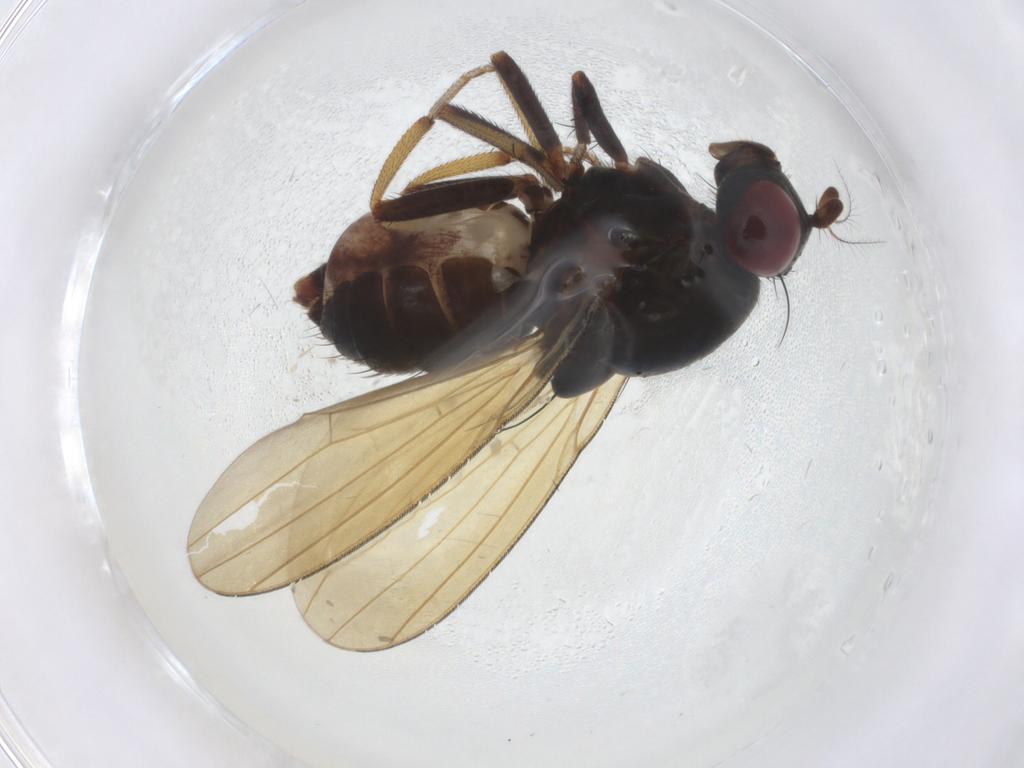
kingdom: Animalia
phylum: Arthropoda
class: Insecta
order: Diptera
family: Lauxaniidae
